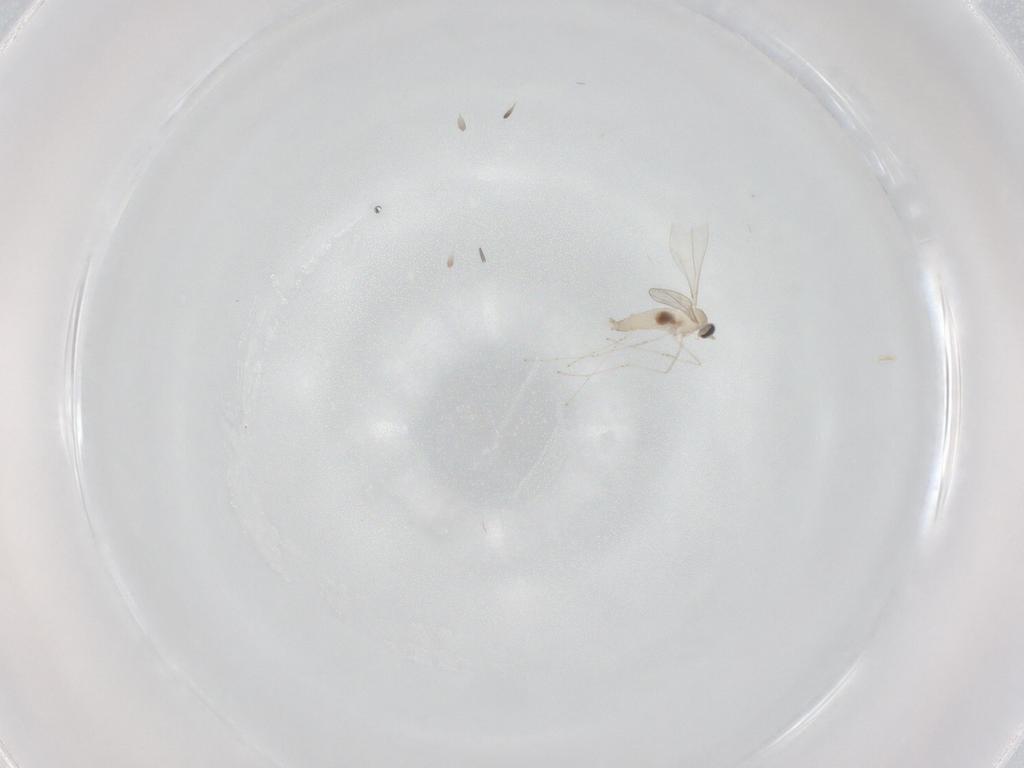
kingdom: Animalia
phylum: Arthropoda
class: Insecta
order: Diptera
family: Cecidomyiidae
